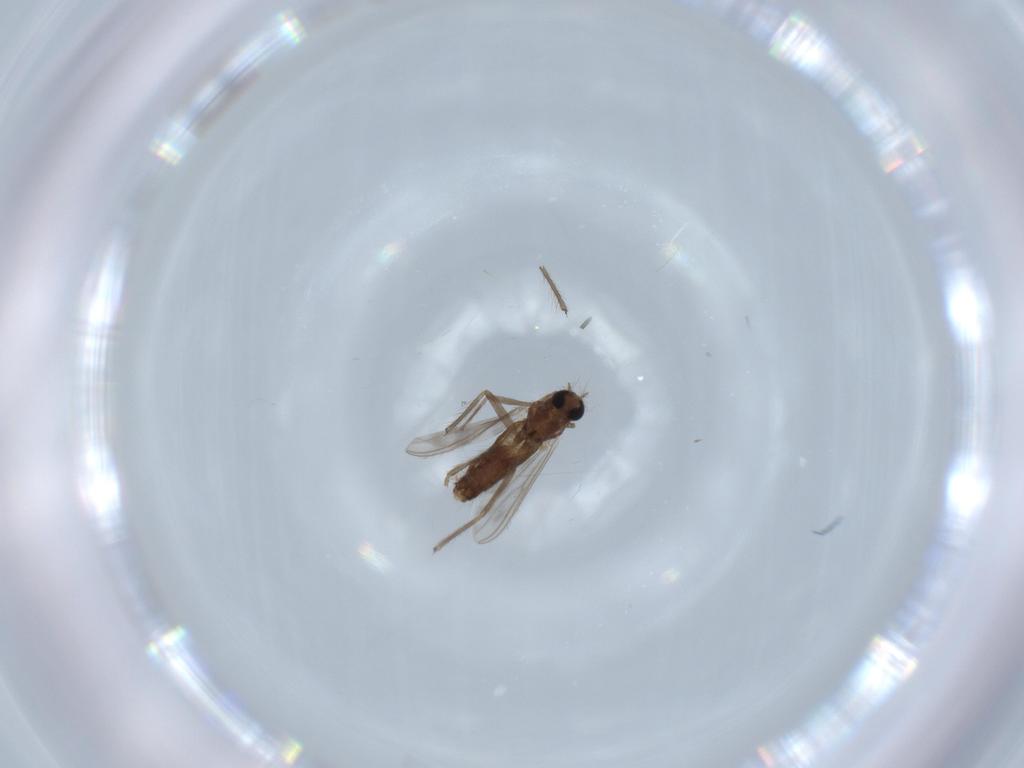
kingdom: Animalia
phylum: Arthropoda
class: Insecta
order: Diptera
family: Chironomidae
